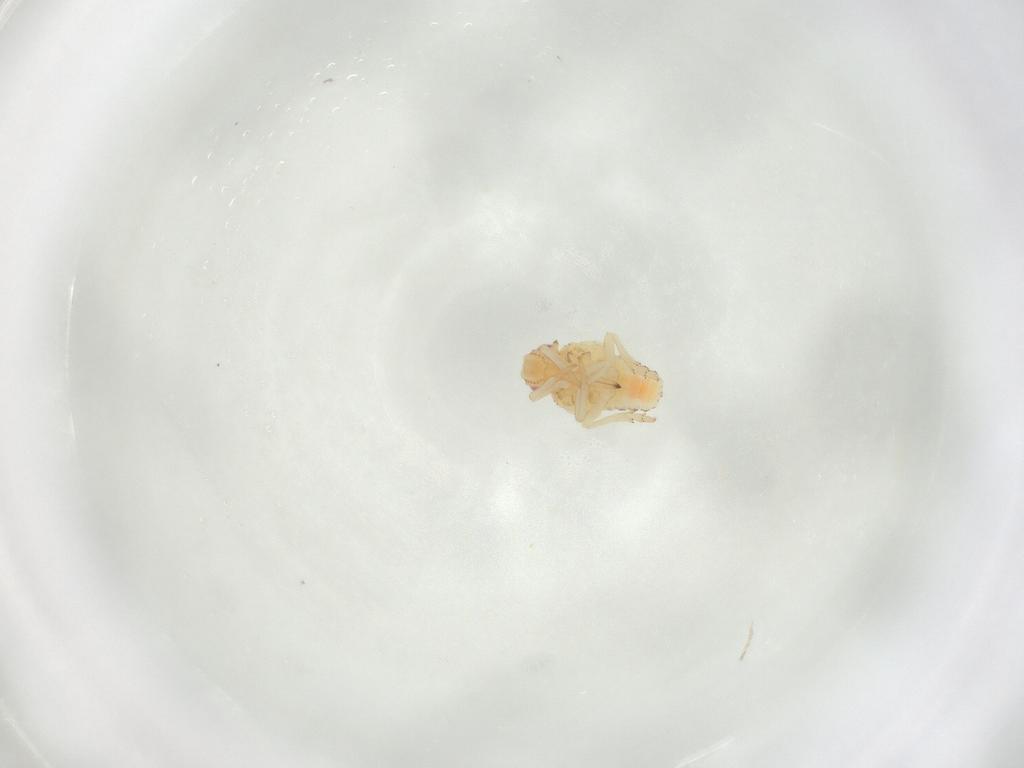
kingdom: Animalia
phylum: Arthropoda
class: Insecta
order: Hemiptera
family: Tropiduchidae
